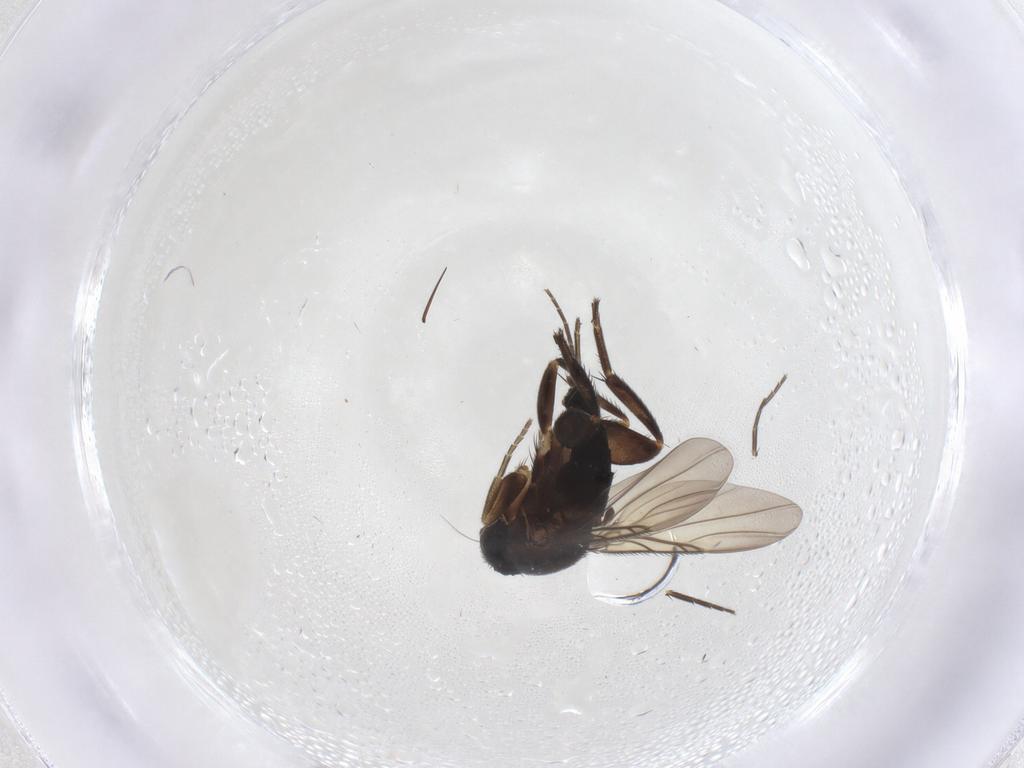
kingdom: Animalia
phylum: Arthropoda
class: Insecta
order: Diptera
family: Phoridae
